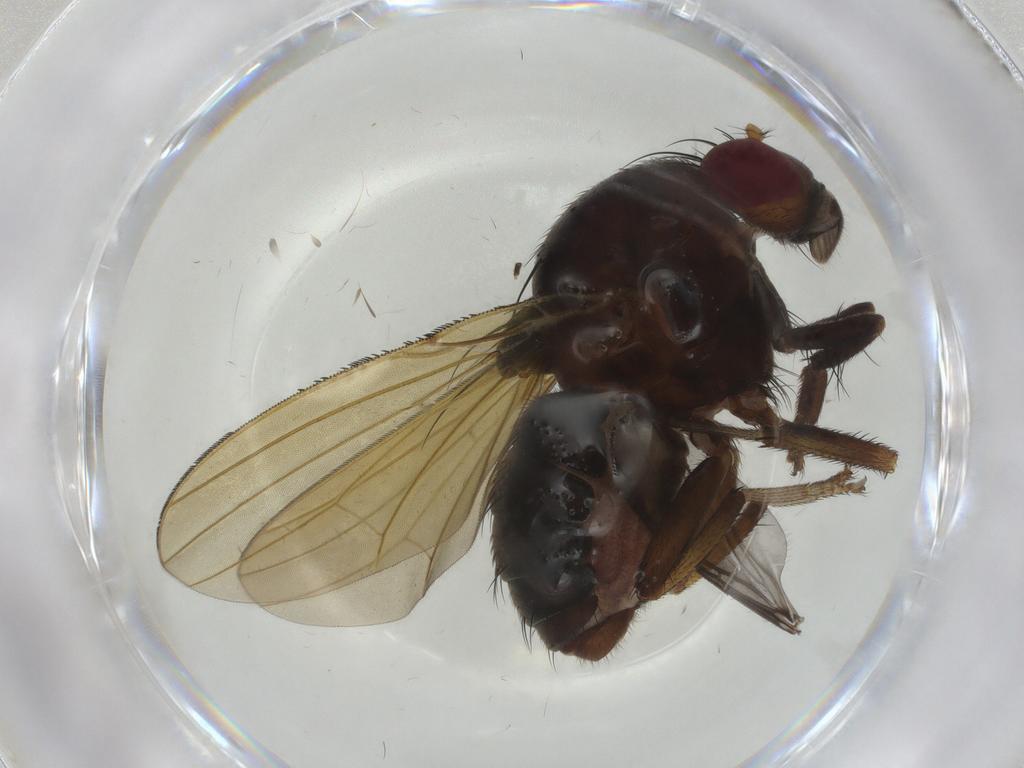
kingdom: Animalia
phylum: Arthropoda
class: Insecta
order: Diptera
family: Lauxaniidae
